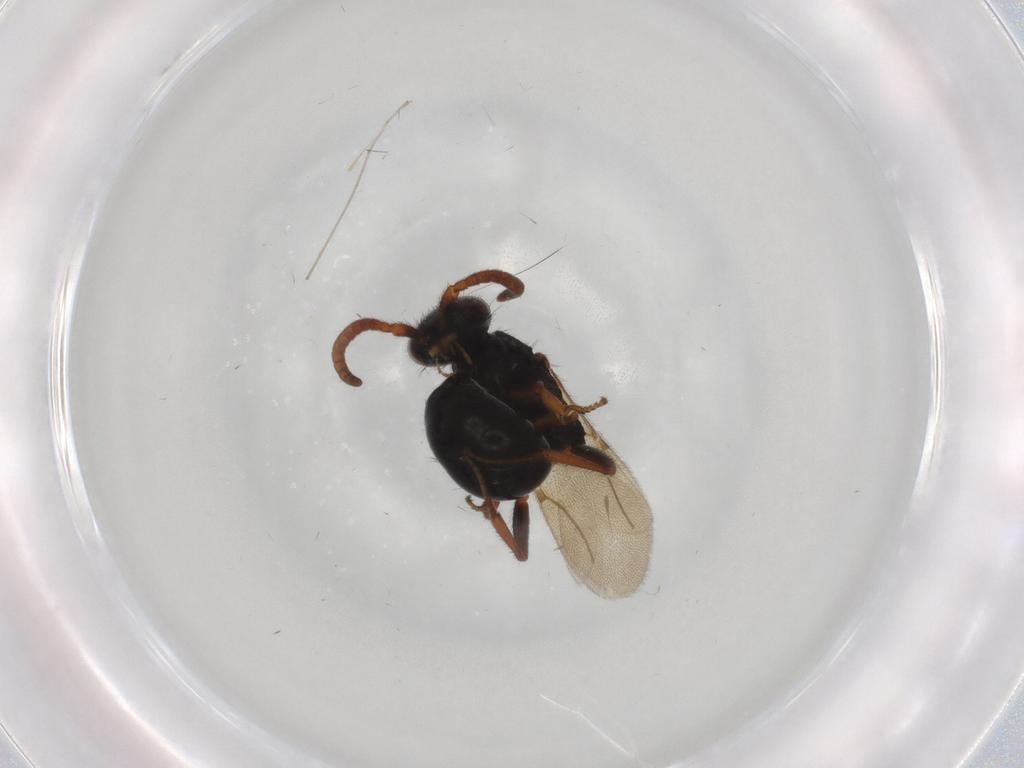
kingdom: Animalia
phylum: Arthropoda
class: Insecta
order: Hymenoptera
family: Bethylidae
